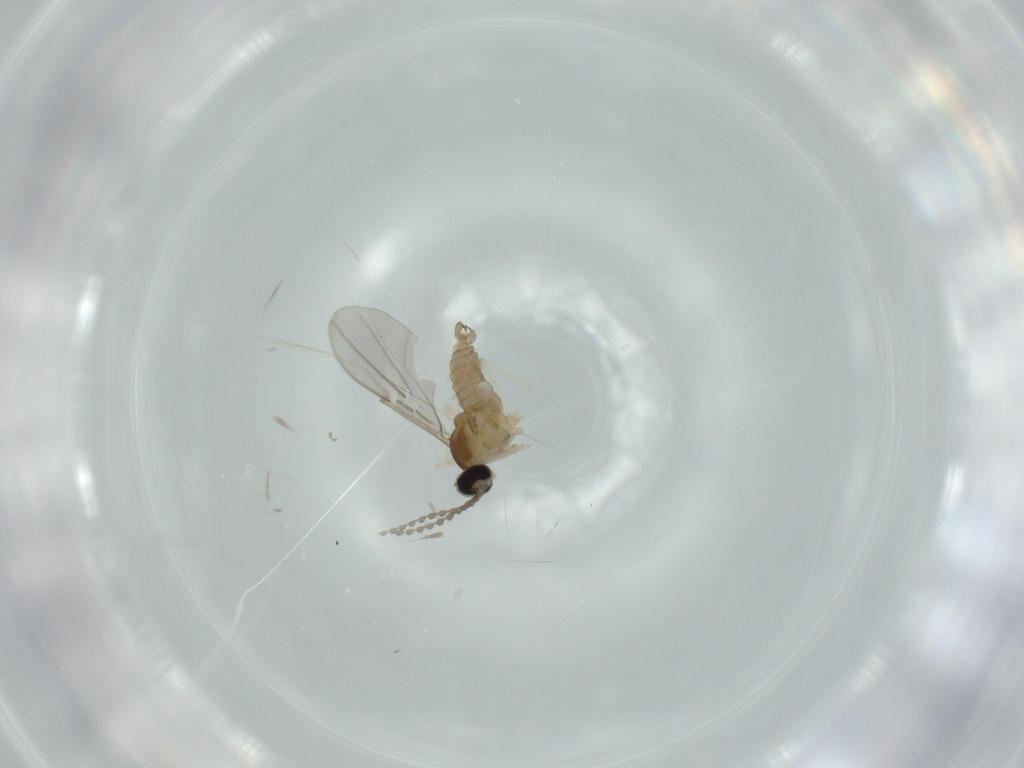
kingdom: Animalia
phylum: Arthropoda
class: Insecta
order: Diptera
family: Cecidomyiidae
